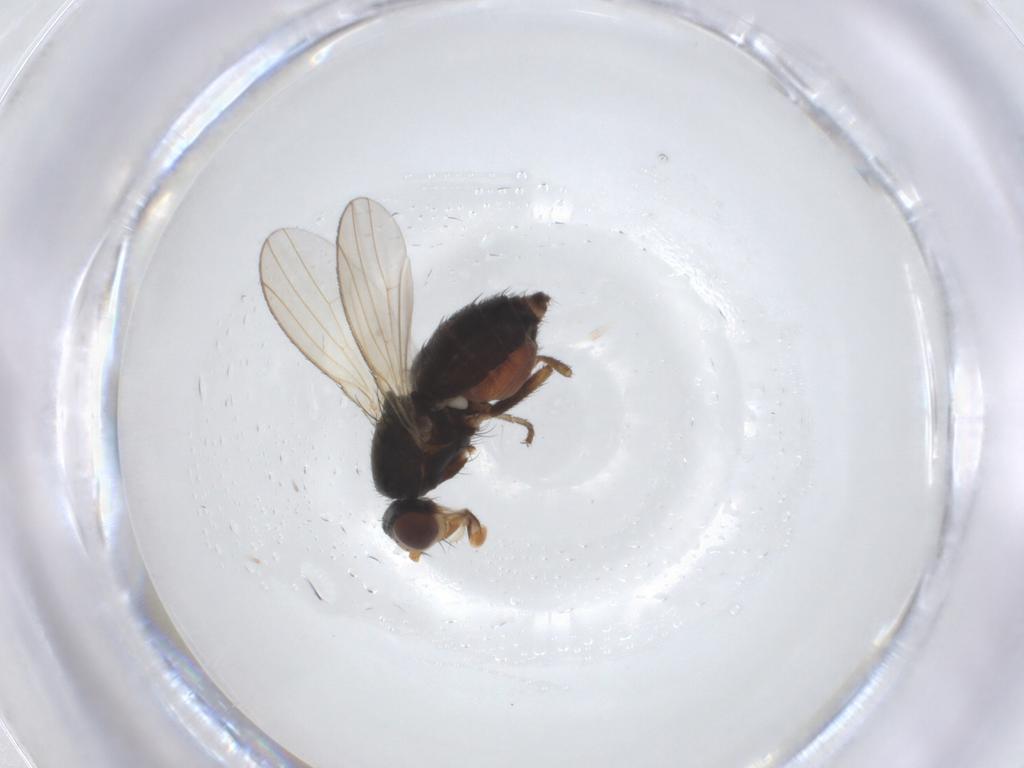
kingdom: Animalia
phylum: Arthropoda
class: Insecta
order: Diptera
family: Heleomyzidae
